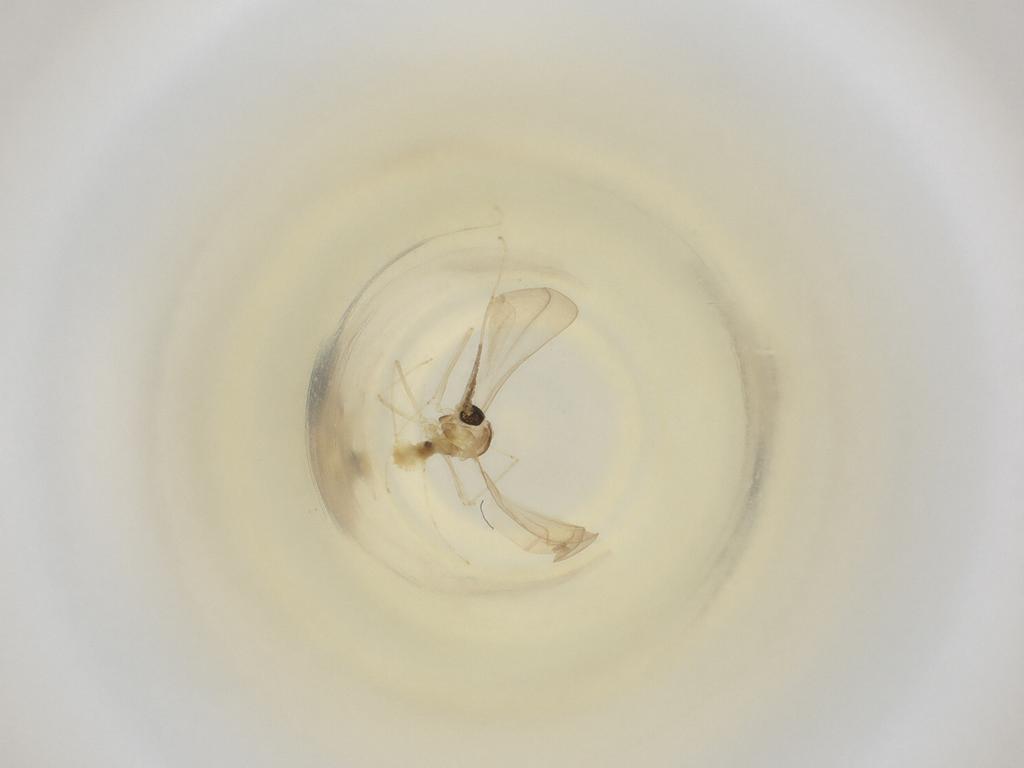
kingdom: Animalia
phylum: Arthropoda
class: Insecta
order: Diptera
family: Cecidomyiidae
